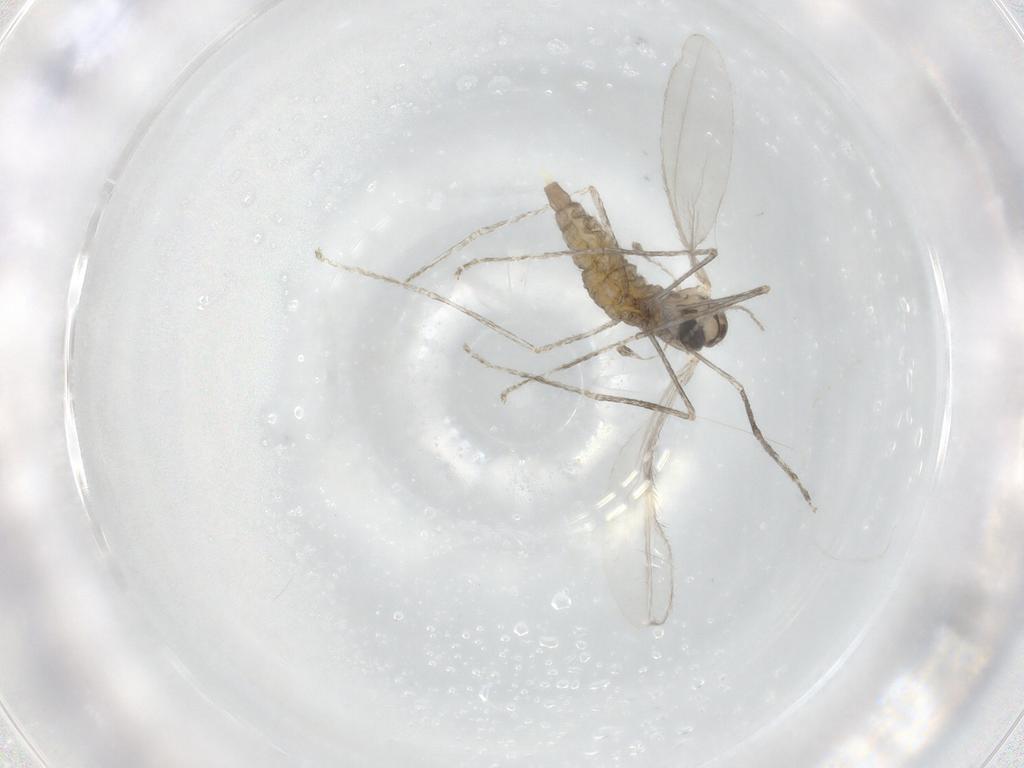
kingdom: Animalia
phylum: Arthropoda
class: Insecta
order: Diptera
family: Cecidomyiidae
